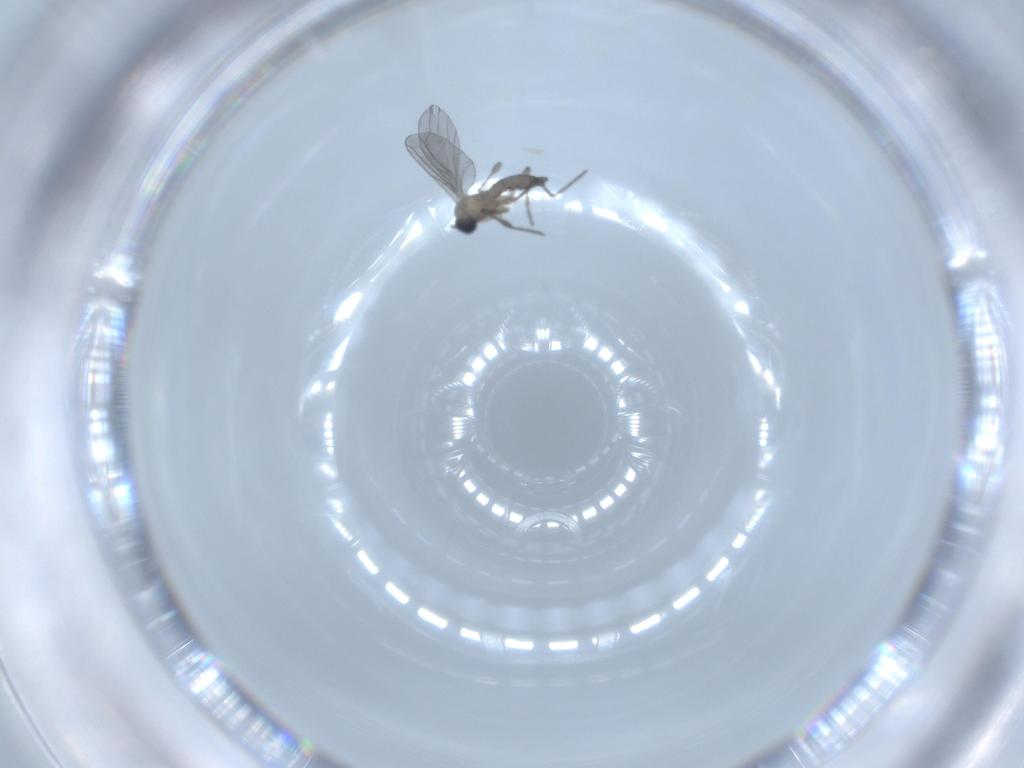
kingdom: Animalia
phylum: Arthropoda
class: Insecta
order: Diptera
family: Sciaridae
